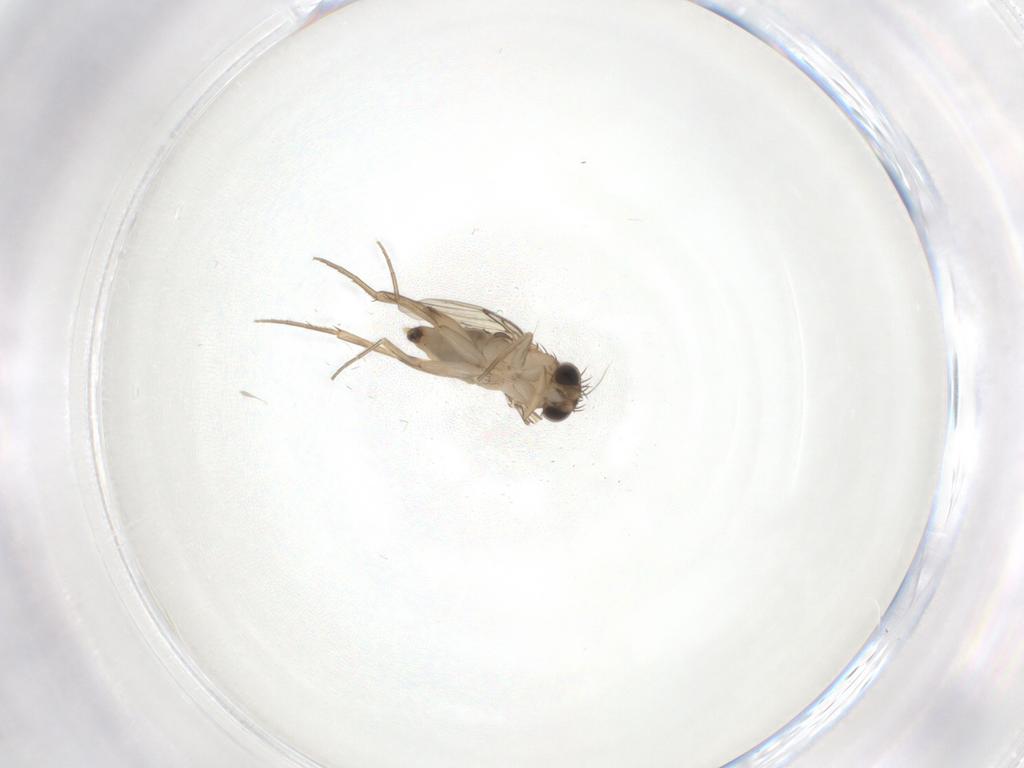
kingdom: Animalia
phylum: Arthropoda
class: Insecta
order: Diptera
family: Phoridae
